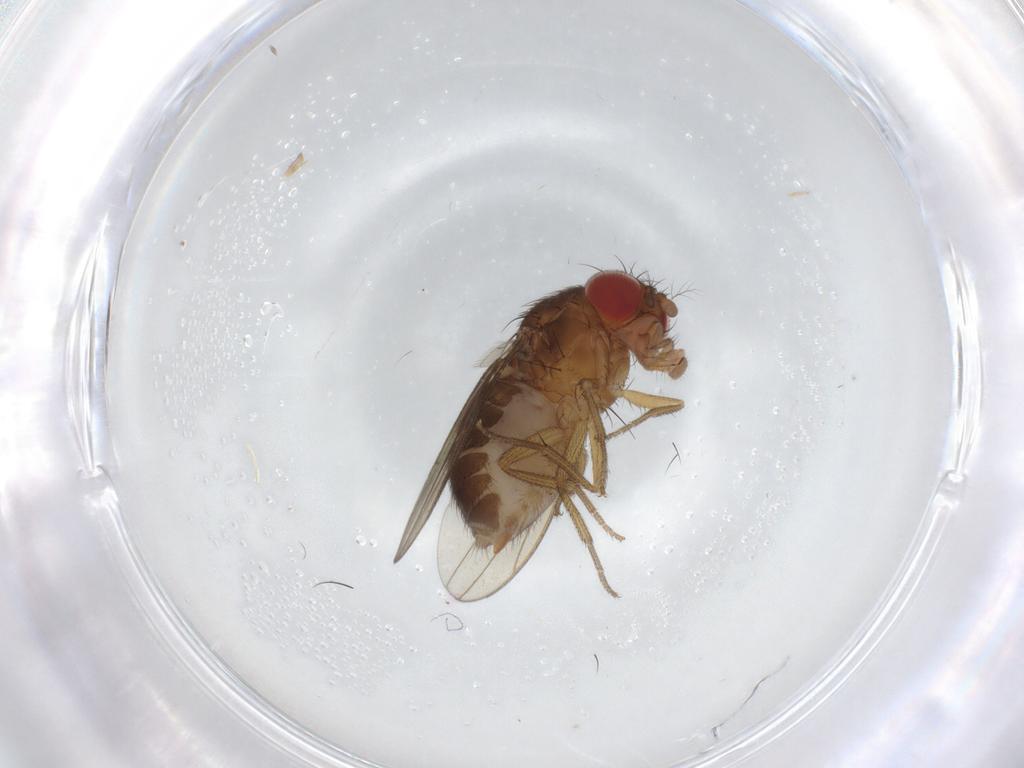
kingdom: Animalia
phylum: Arthropoda
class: Insecta
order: Diptera
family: Drosophilidae
